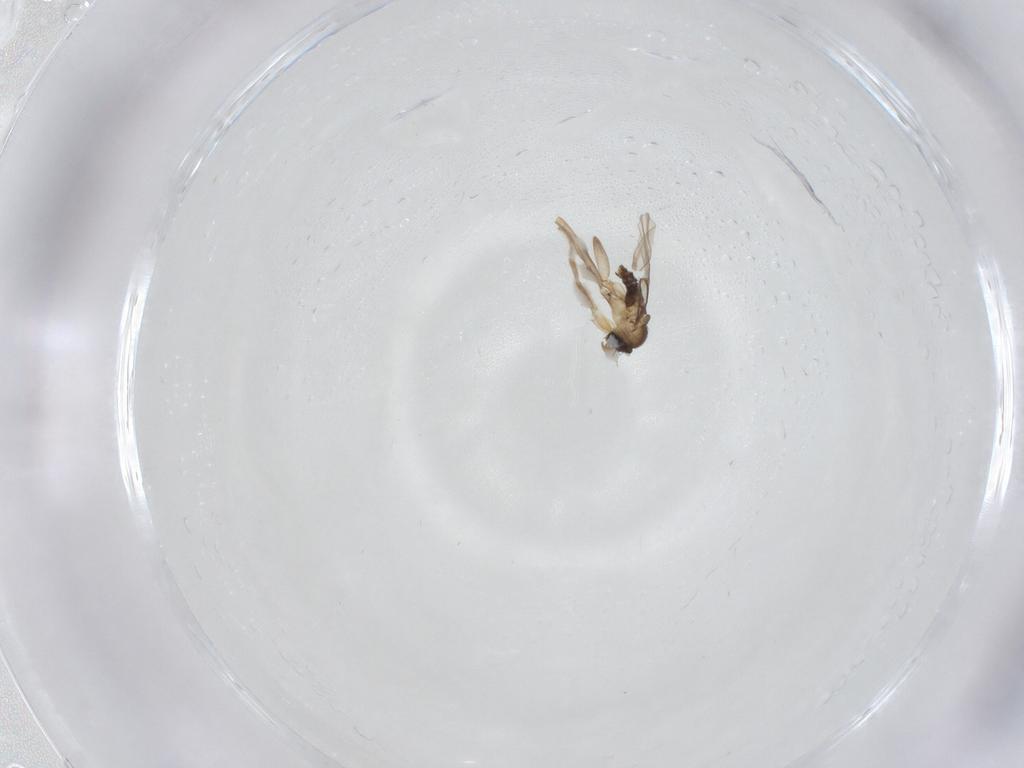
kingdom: Animalia
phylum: Arthropoda
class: Insecta
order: Diptera
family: Phoridae
